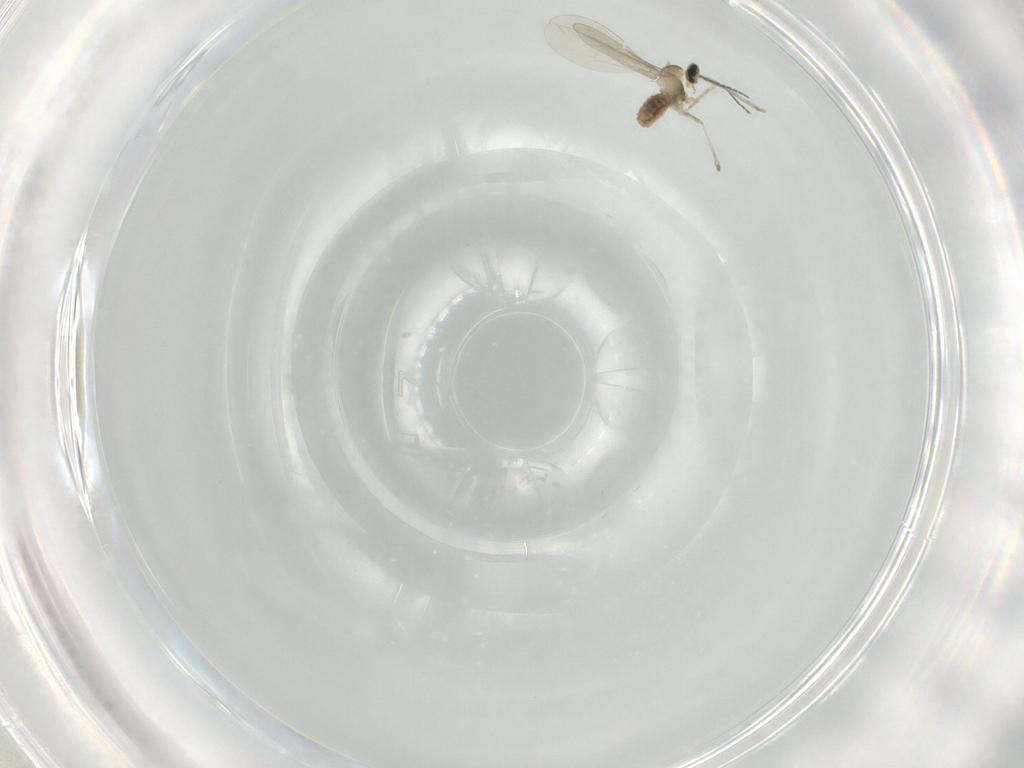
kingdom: Animalia
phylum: Arthropoda
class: Insecta
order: Diptera
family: Cecidomyiidae
